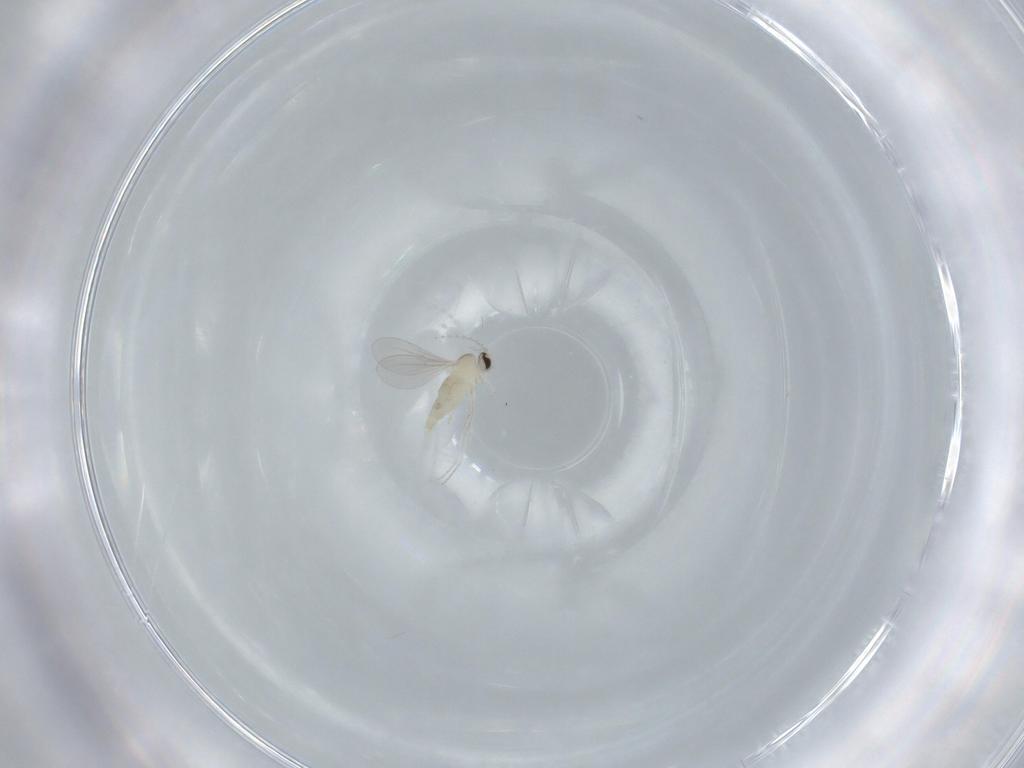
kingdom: Animalia
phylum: Arthropoda
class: Insecta
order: Diptera
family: Cecidomyiidae
